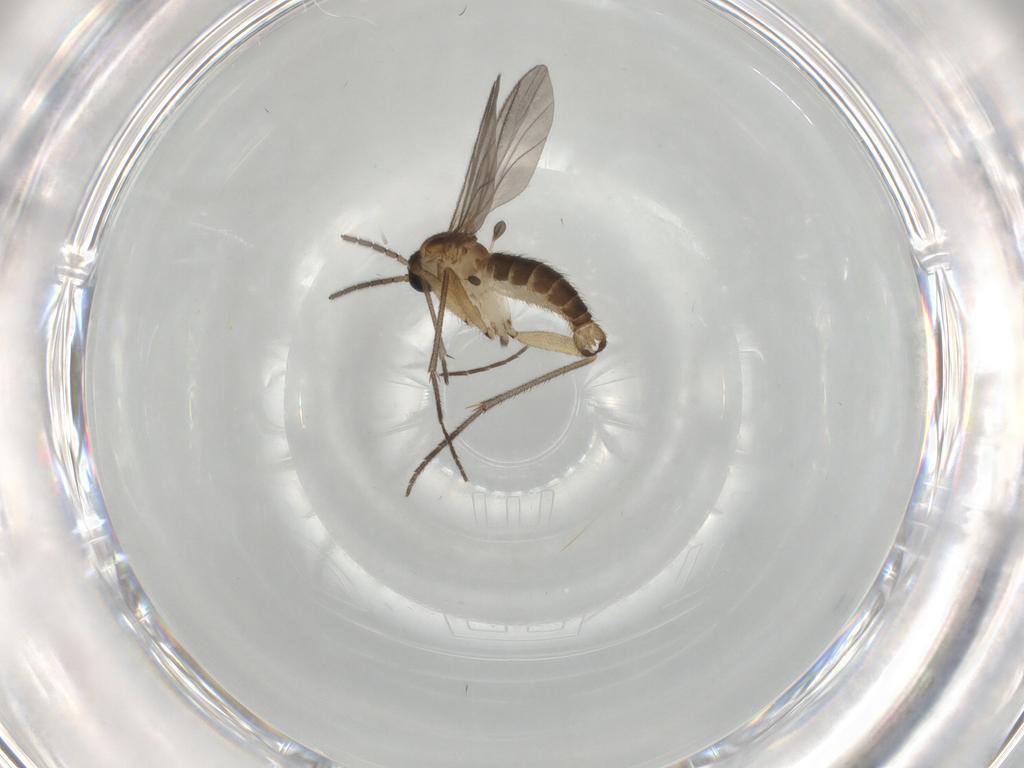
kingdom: Animalia
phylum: Arthropoda
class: Insecta
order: Diptera
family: Sciaridae
